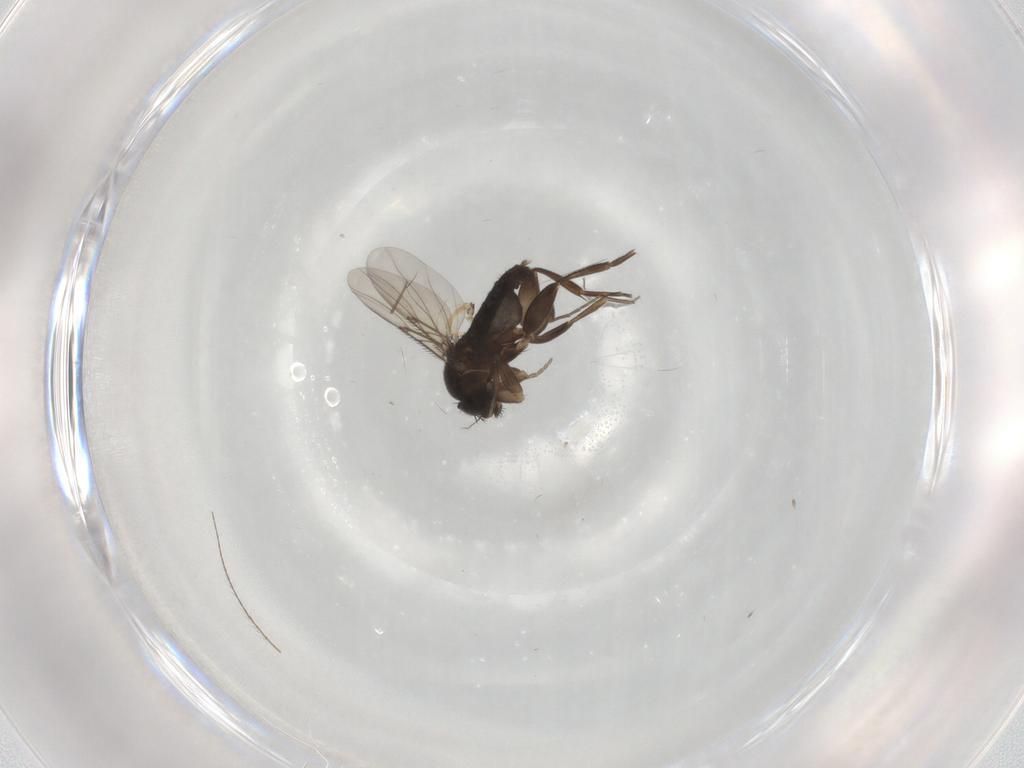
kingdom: Animalia
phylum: Arthropoda
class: Insecta
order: Diptera
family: Phoridae
